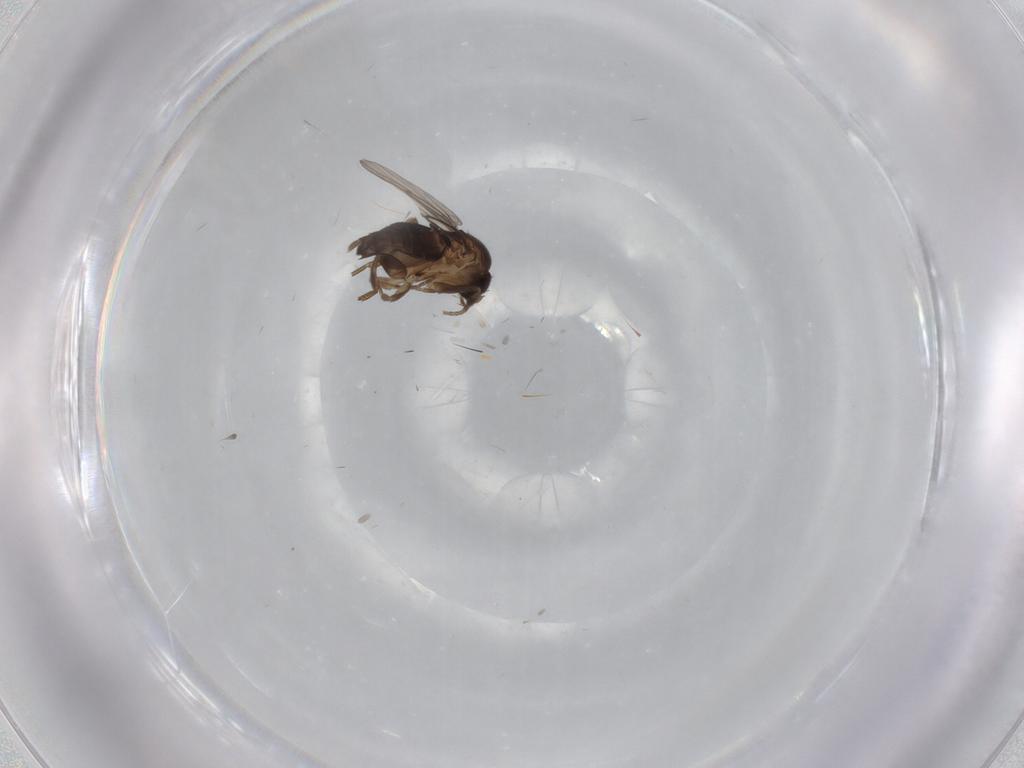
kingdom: Animalia
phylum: Arthropoda
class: Insecta
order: Diptera
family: Phoridae
